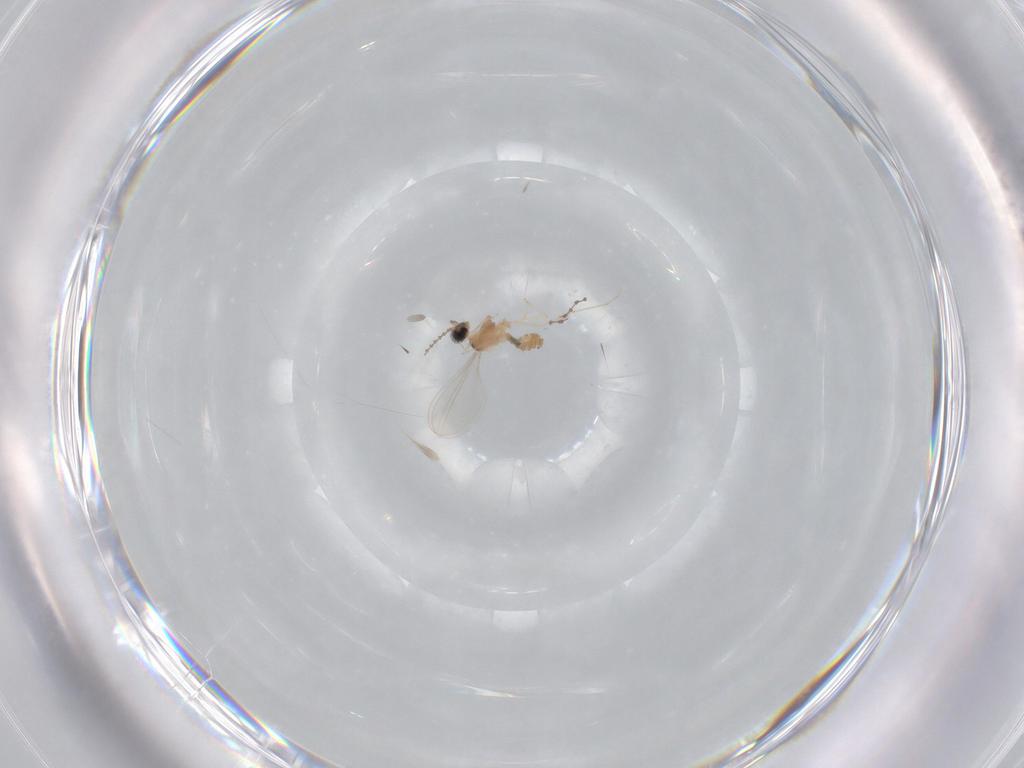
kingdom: Animalia
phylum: Arthropoda
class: Insecta
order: Diptera
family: Cecidomyiidae
